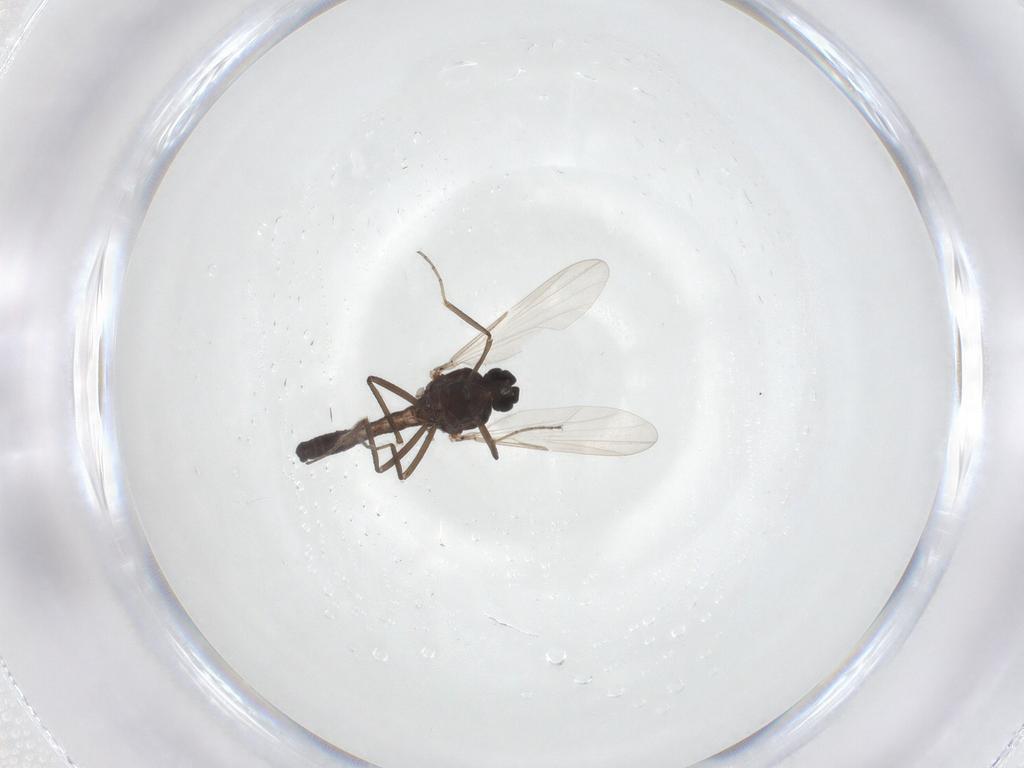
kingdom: Animalia
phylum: Arthropoda
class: Insecta
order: Diptera
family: Ceratopogonidae
